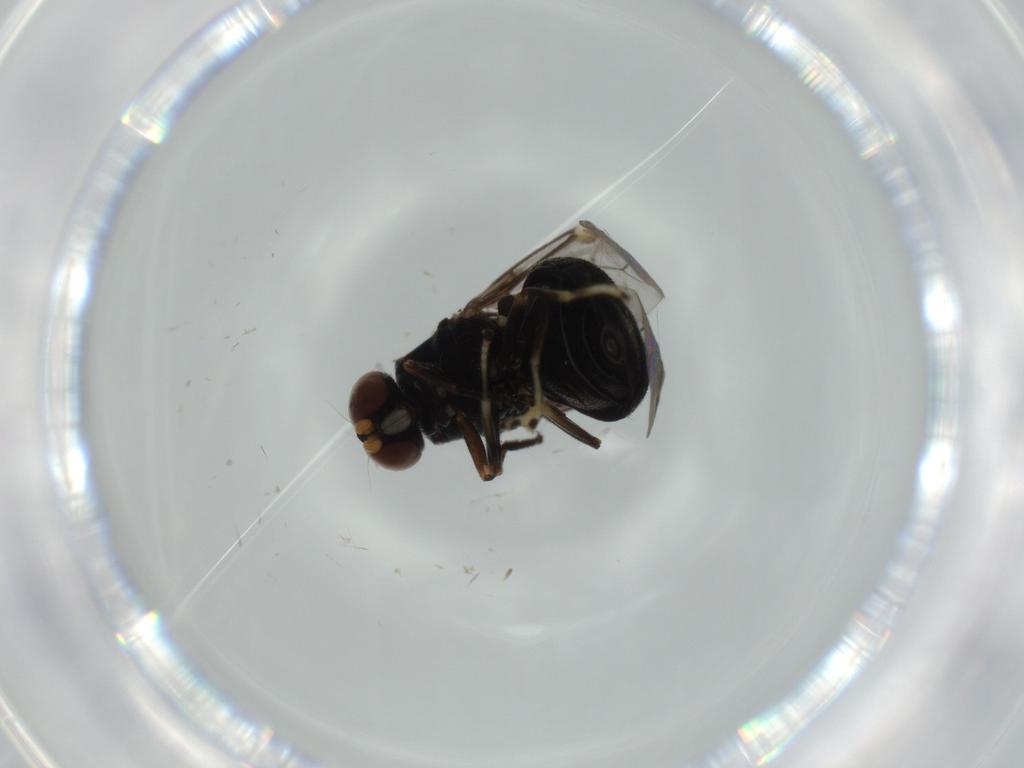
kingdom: Animalia
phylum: Arthropoda
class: Insecta
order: Diptera
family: Stratiomyidae
